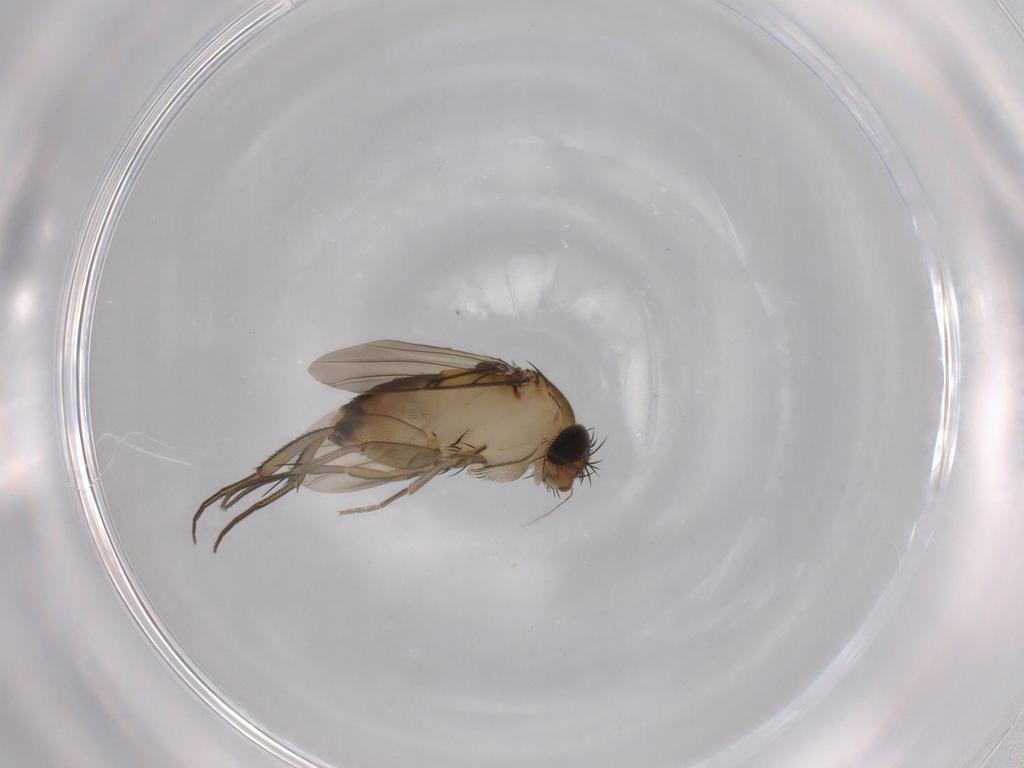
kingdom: Animalia
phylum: Arthropoda
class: Insecta
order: Diptera
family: Phoridae
